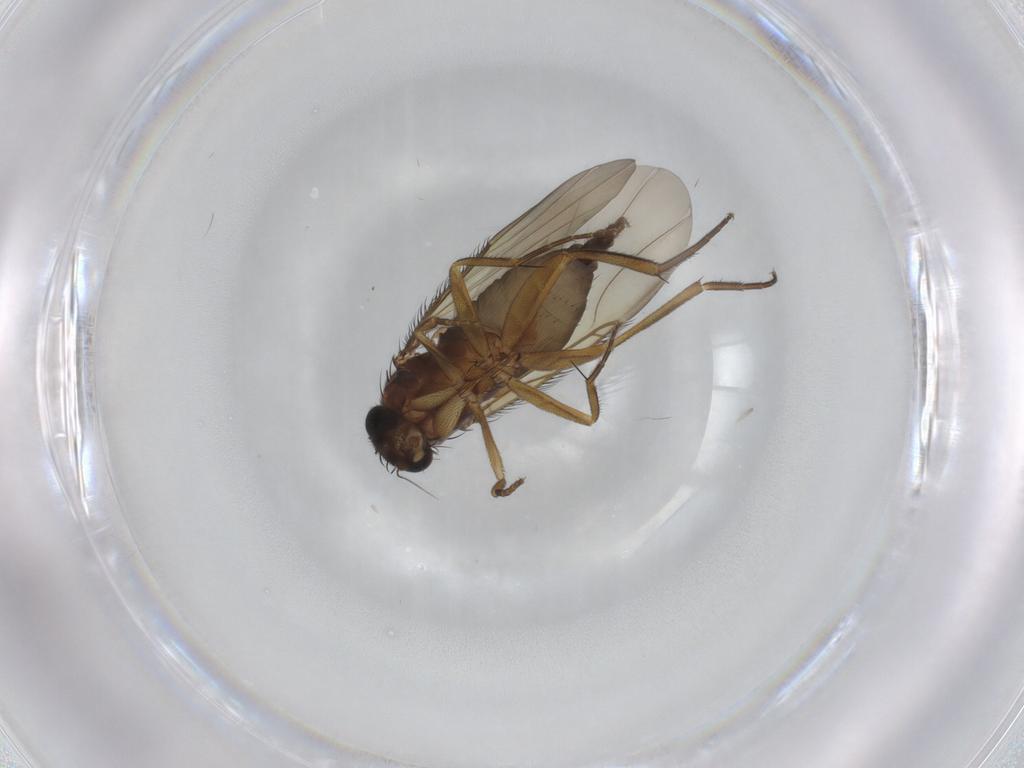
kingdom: Animalia
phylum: Arthropoda
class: Insecta
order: Diptera
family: Phoridae
